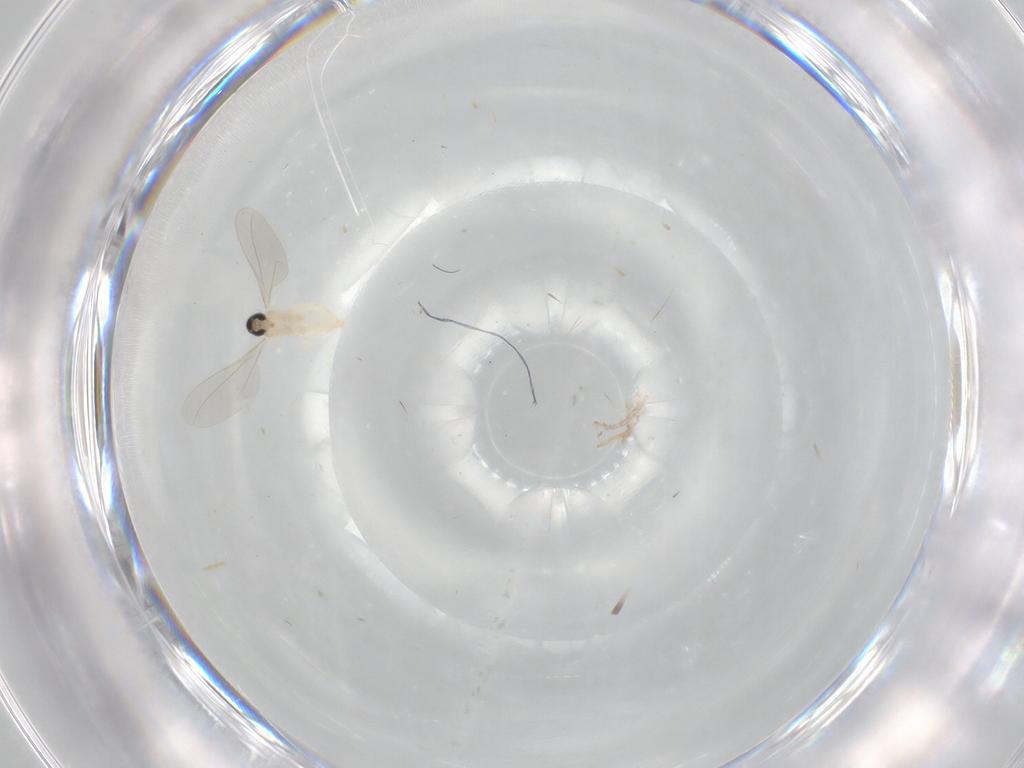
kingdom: Animalia
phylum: Arthropoda
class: Insecta
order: Diptera
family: Cecidomyiidae
